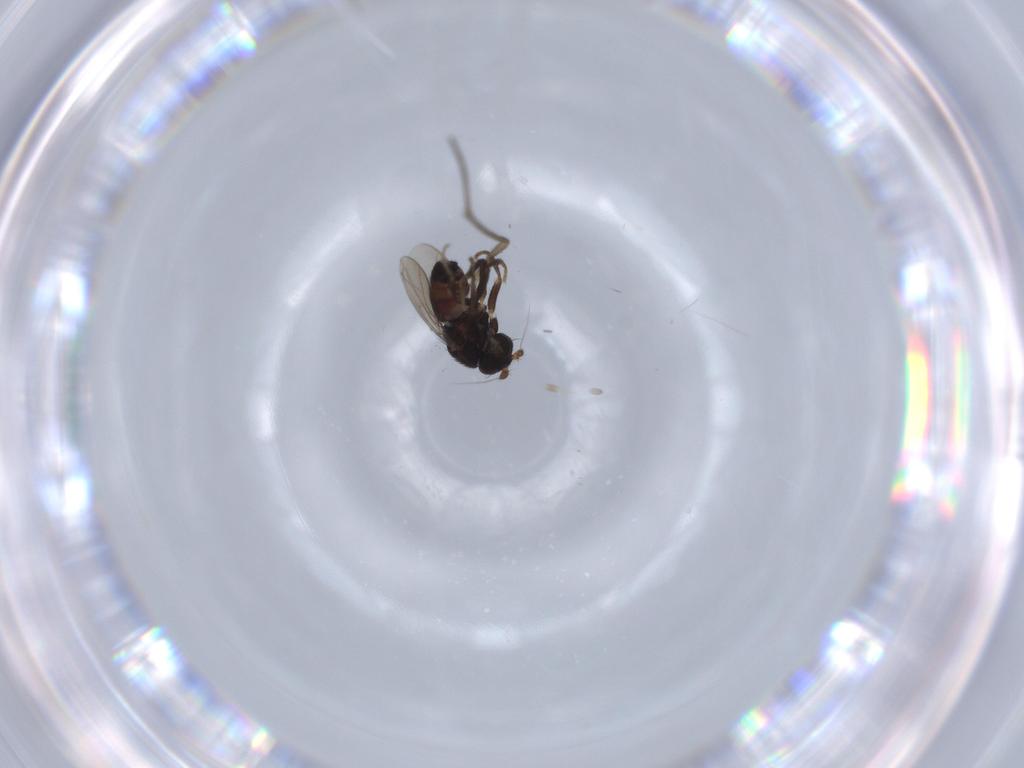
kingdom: Animalia
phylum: Arthropoda
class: Insecta
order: Diptera
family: Sciaridae
